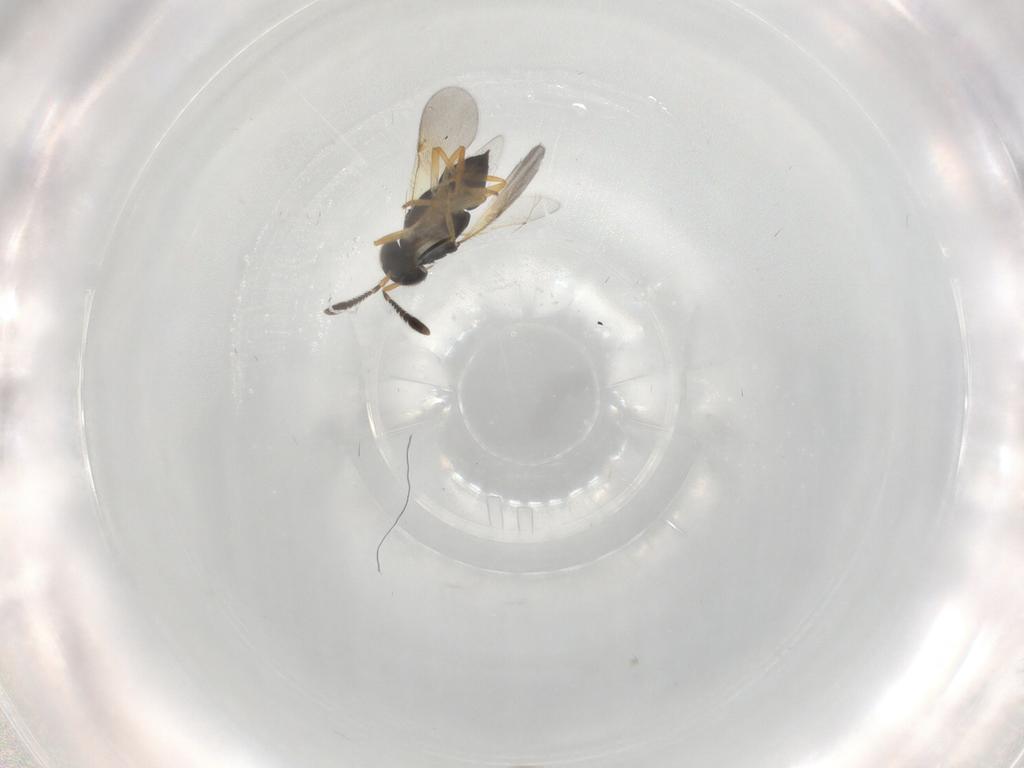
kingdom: Animalia
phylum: Arthropoda
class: Insecta
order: Hymenoptera
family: Encyrtidae
